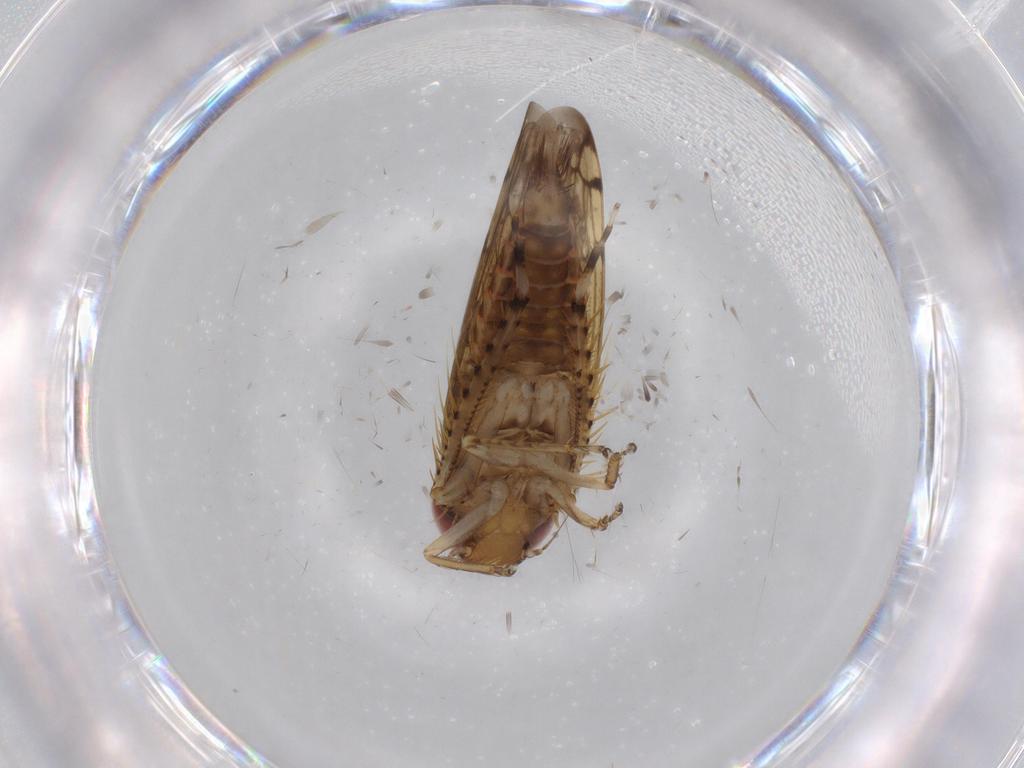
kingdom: Animalia
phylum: Arthropoda
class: Insecta
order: Hemiptera
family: Cicadellidae
